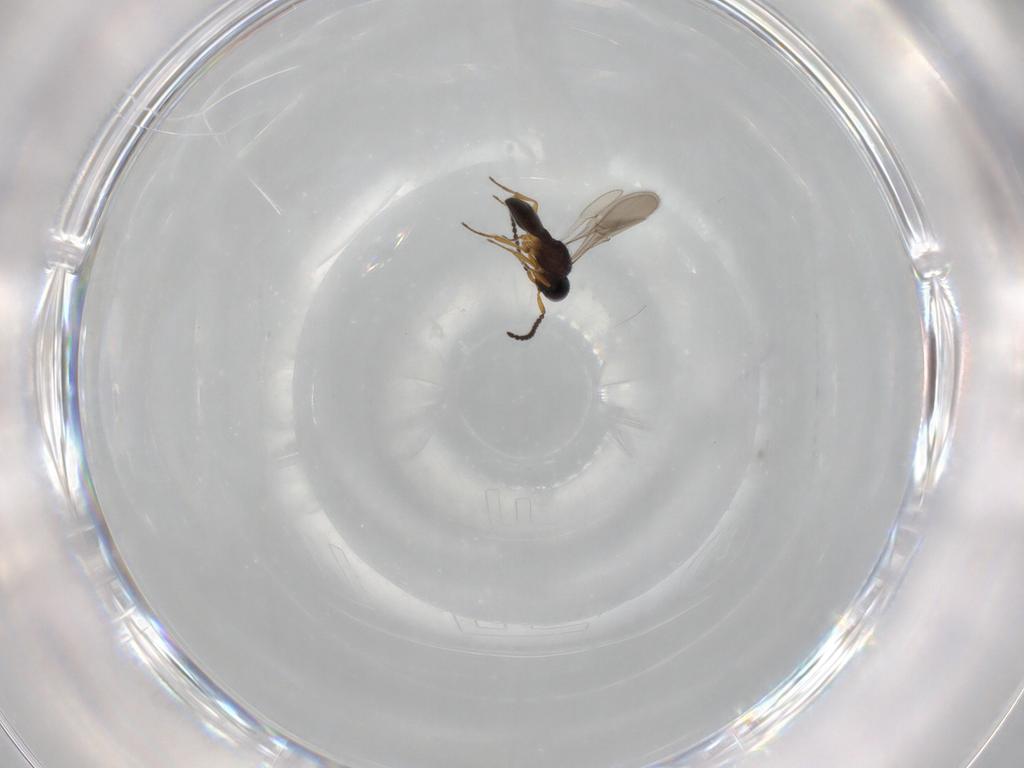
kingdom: Animalia
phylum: Arthropoda
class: Insecta
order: Hymenoptera
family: Scelionidae
